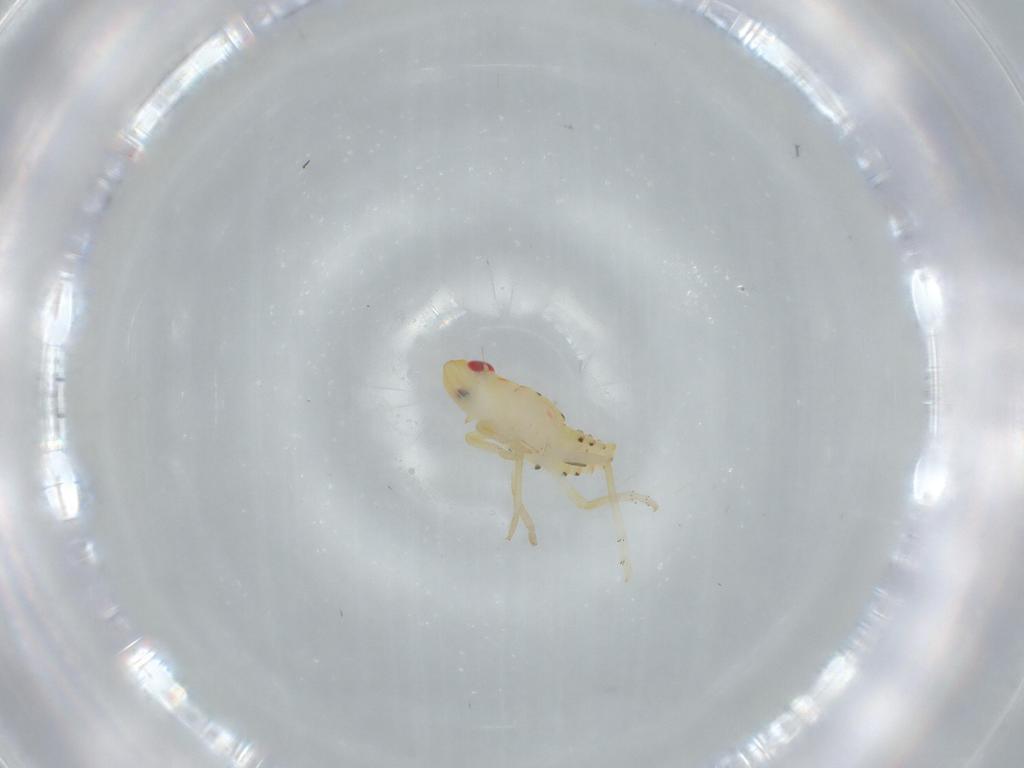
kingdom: Animalia
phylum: Arthropoda
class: Insecta
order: Hemiptera
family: Tropiduchidae
